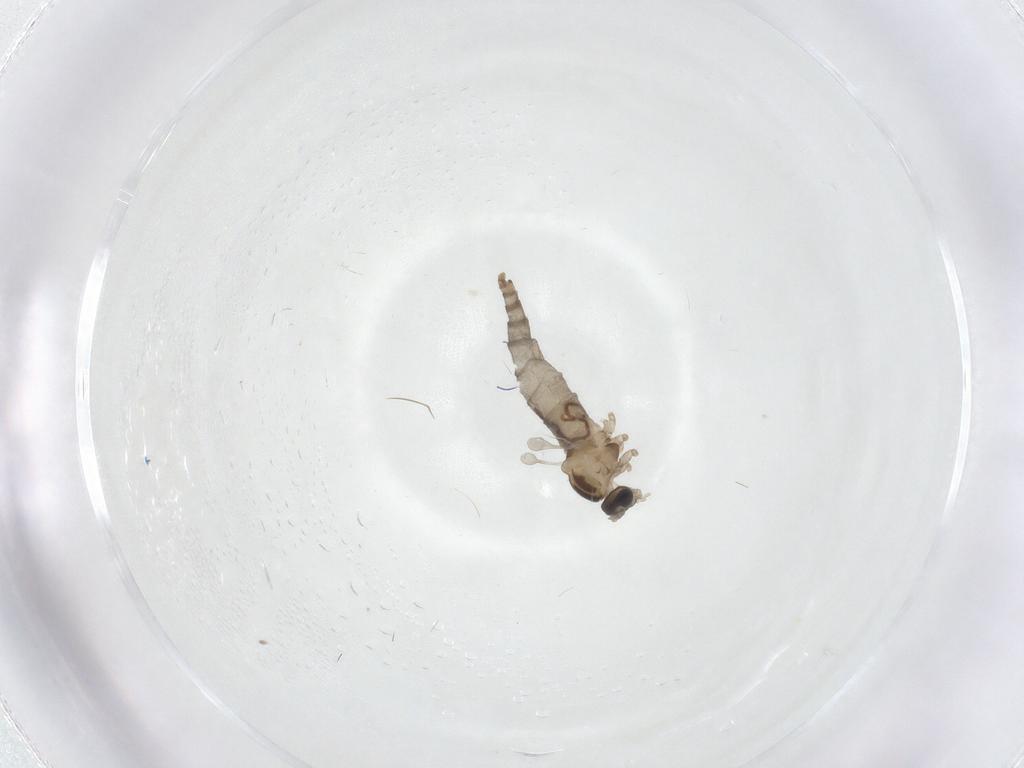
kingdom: Animalia
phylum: Arthropoda
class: Insecta
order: Diptera
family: Cecidomyiidae
